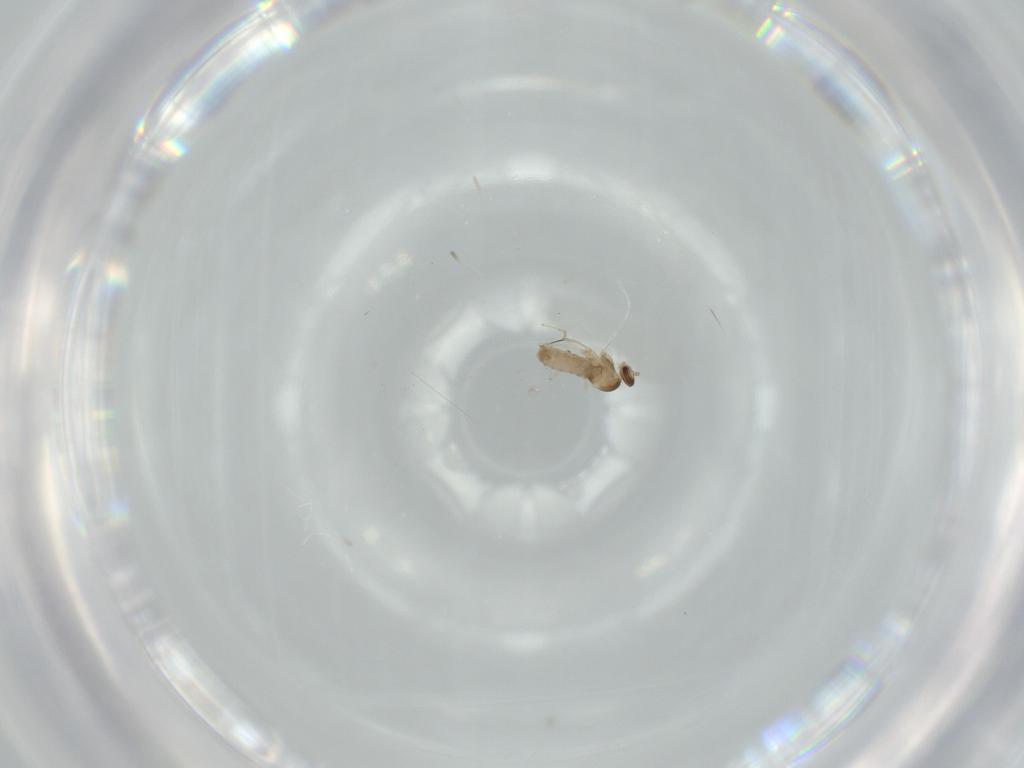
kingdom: Animalia
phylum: Arthropoda
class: Insecta
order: Diptera
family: Cecidomyiidae
